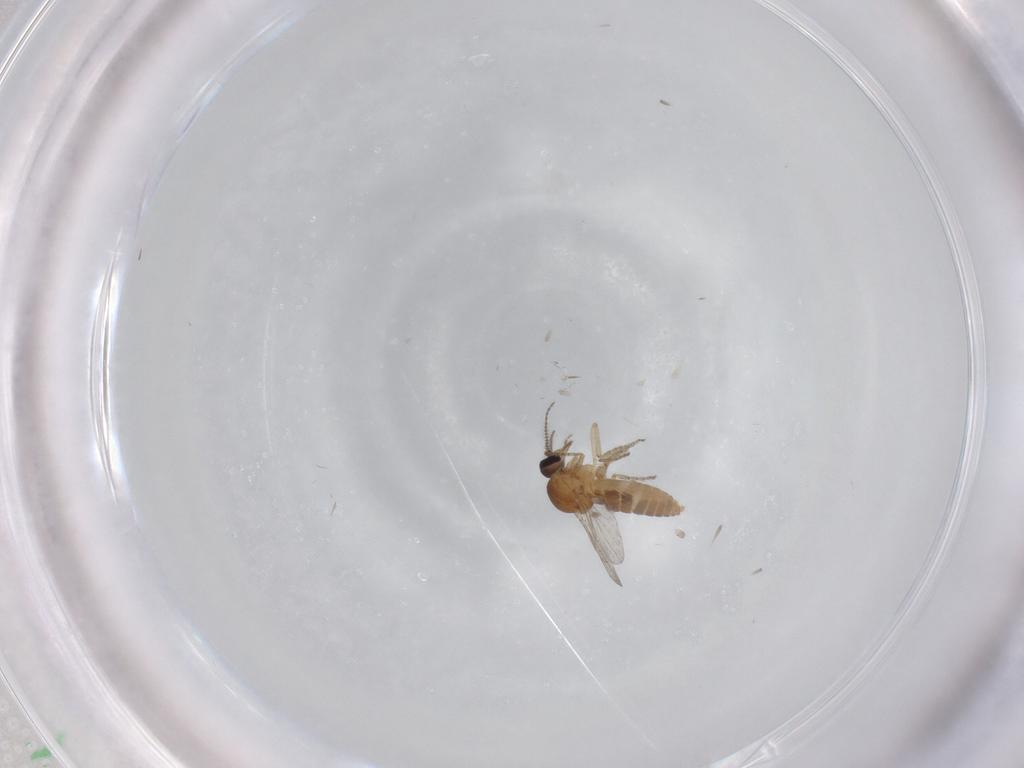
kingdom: Animalia
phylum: Arthropoda
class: Insecta
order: Diptera
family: Ceratopogonidae
